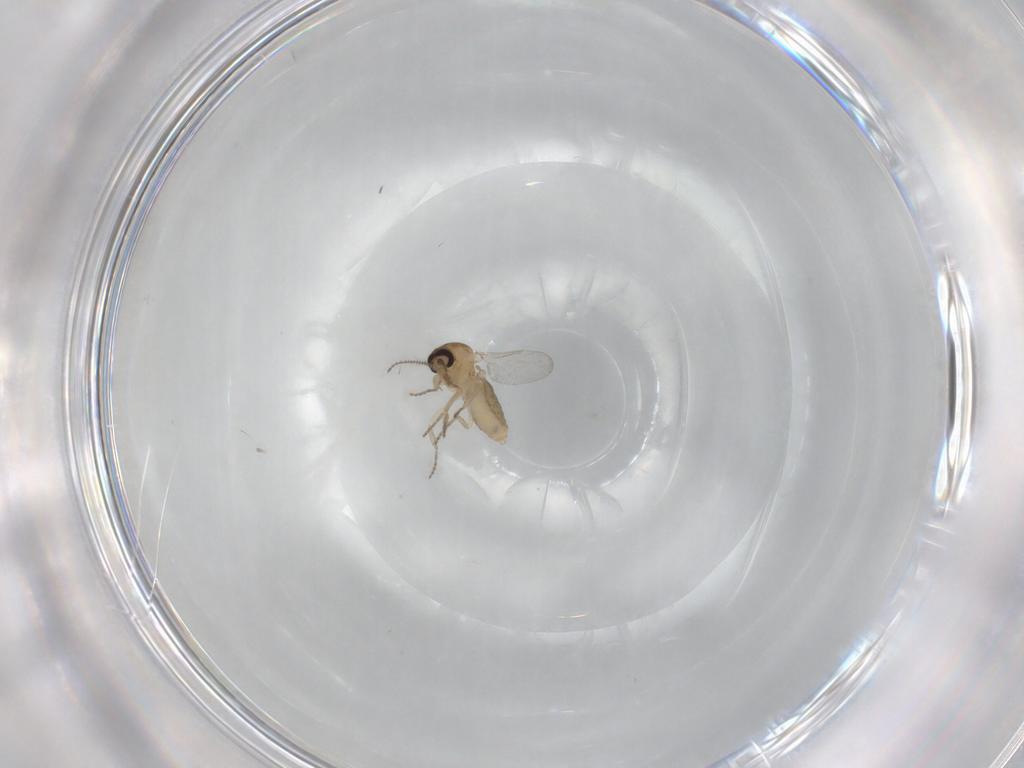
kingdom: Animalia
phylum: Arthropoda
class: Insecta
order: Diptera
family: Ceratopogonidae
